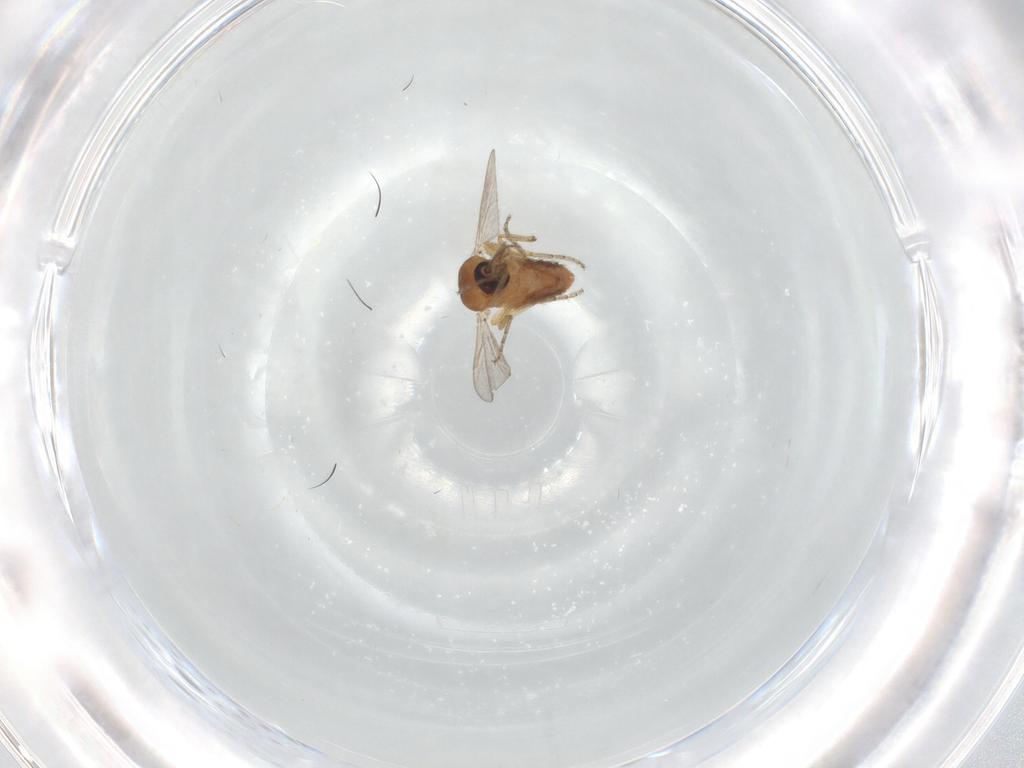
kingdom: Animalia
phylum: Arthropoda
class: Insecta
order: Diptera
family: Ceratopogonidae
